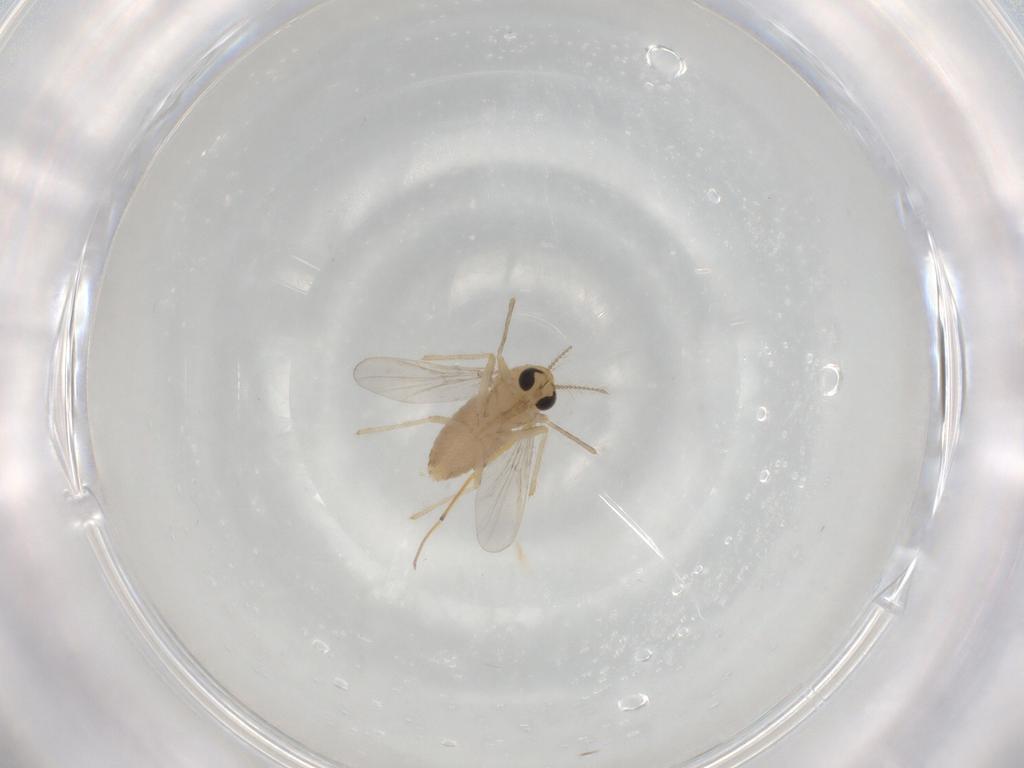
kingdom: Animalia
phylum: Arthropoda
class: Insecta
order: Diptera
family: Chironomidae
